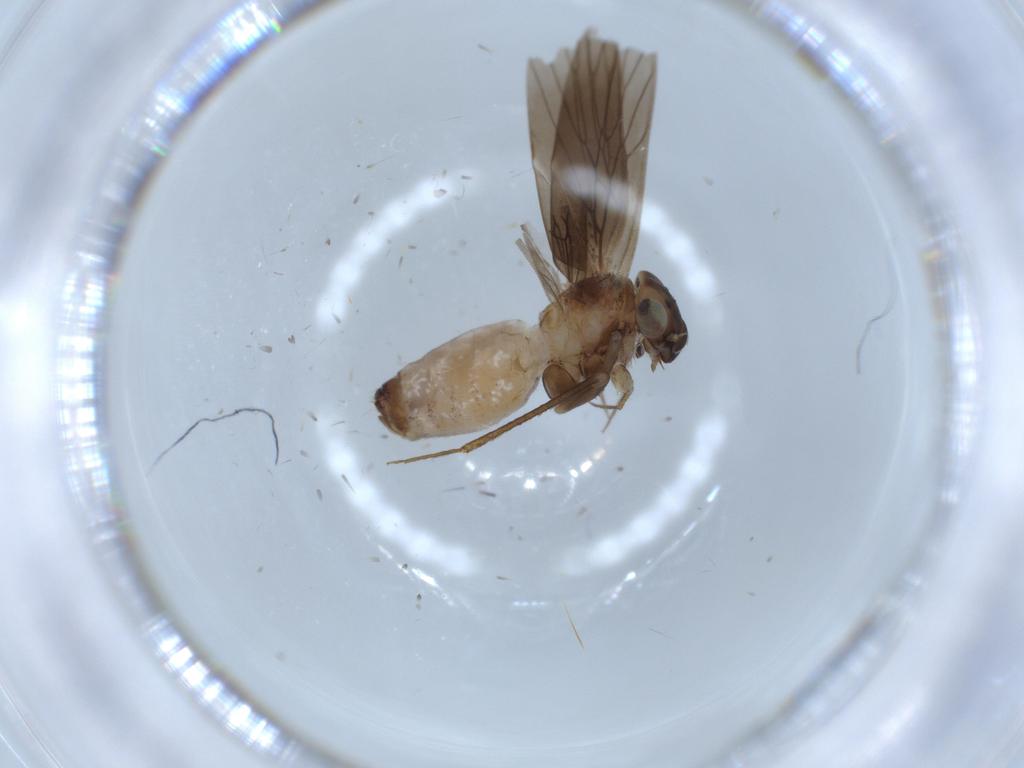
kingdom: Animalia
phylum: Arthropoda
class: Insecta
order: Psocodea
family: Lepidopsocidae
